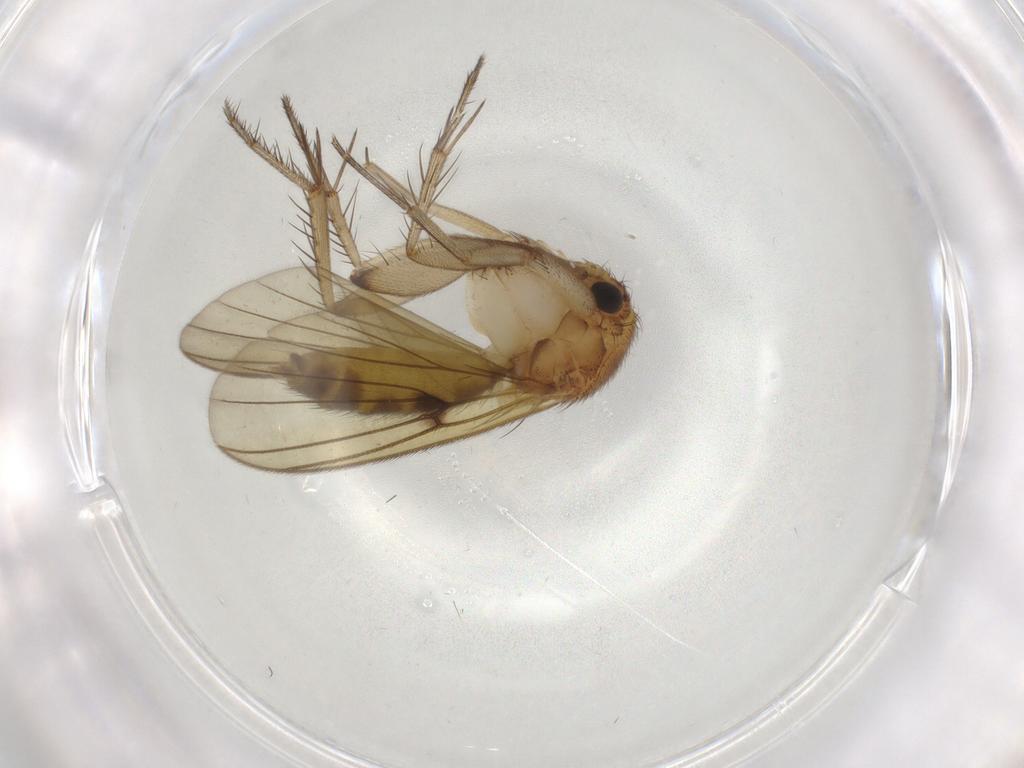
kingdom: Animalia
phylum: Arthropoda
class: Insecta
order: Diptera
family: Mycetophilidae
